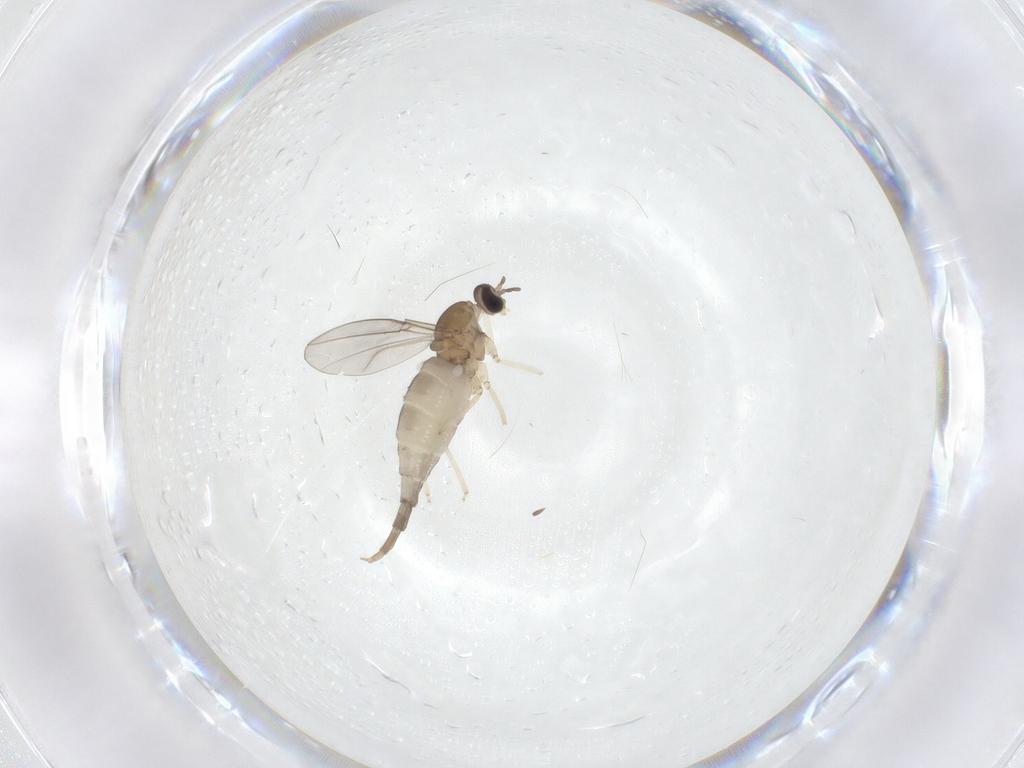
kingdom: Animalia
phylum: Arthropoda
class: Insecta
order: Diptera
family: Cecidomyiidae
